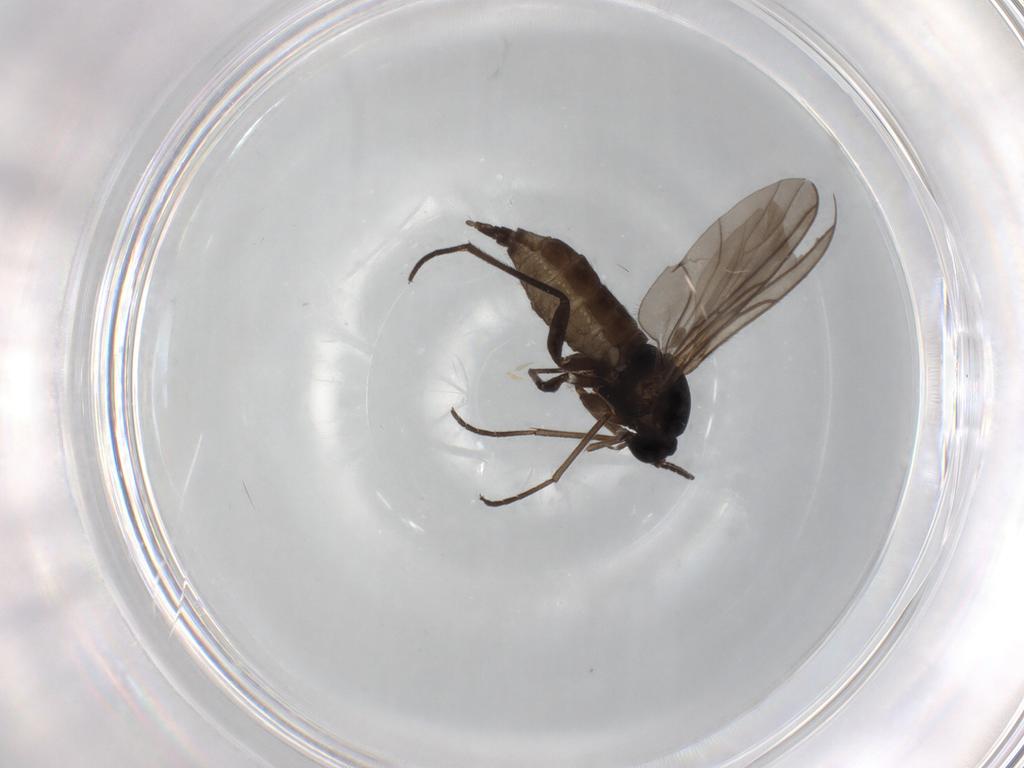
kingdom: Animalia
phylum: Arthropoda
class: Insecta
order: Diptera
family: Sciaridae
